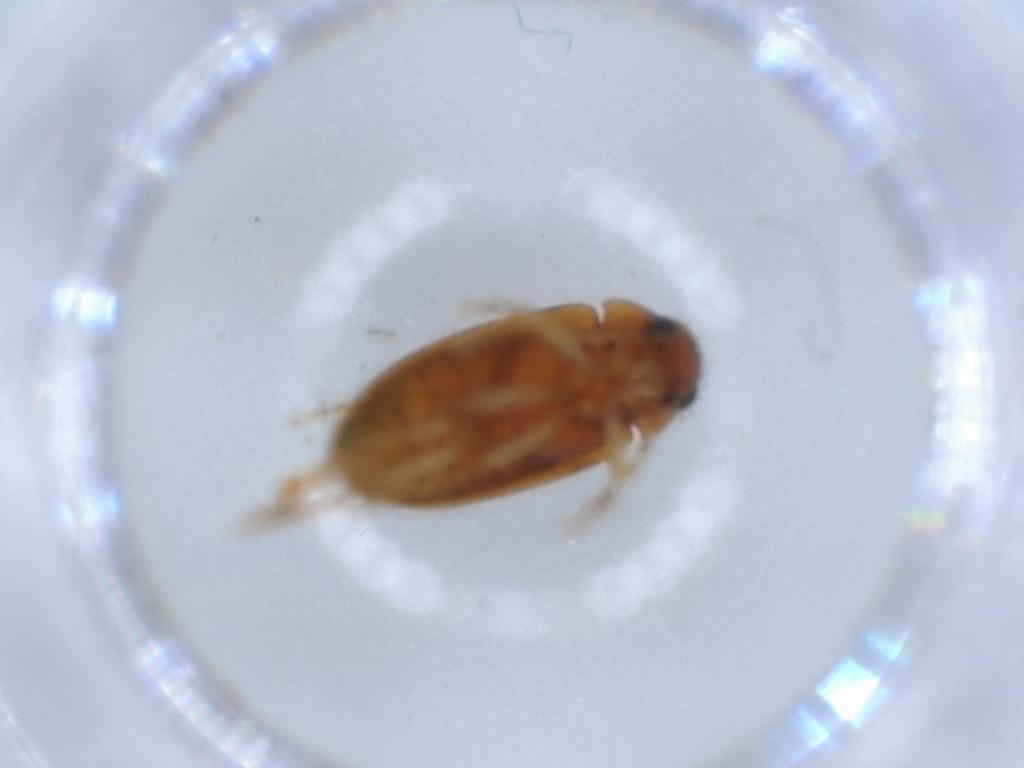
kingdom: Animalia
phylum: Arthropoda
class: Insecta
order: Coleoptera
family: Ptilodactylidae
